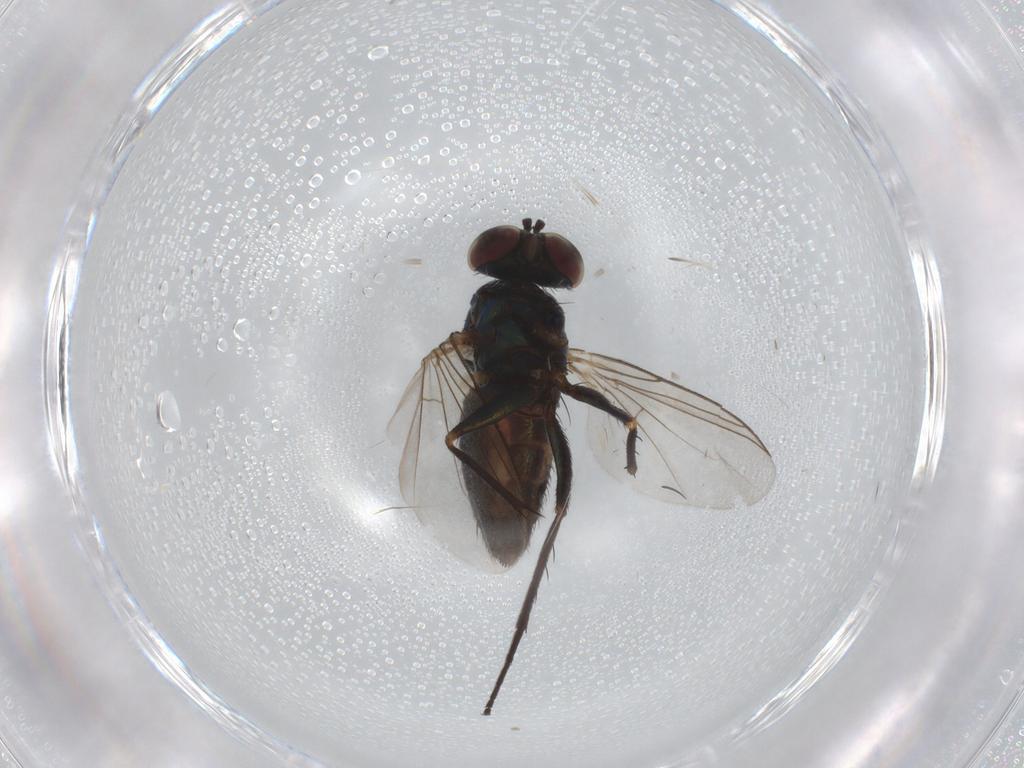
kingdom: Animalia
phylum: Arthropoda
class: Insecta
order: Diptera
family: Dolichopodidae
